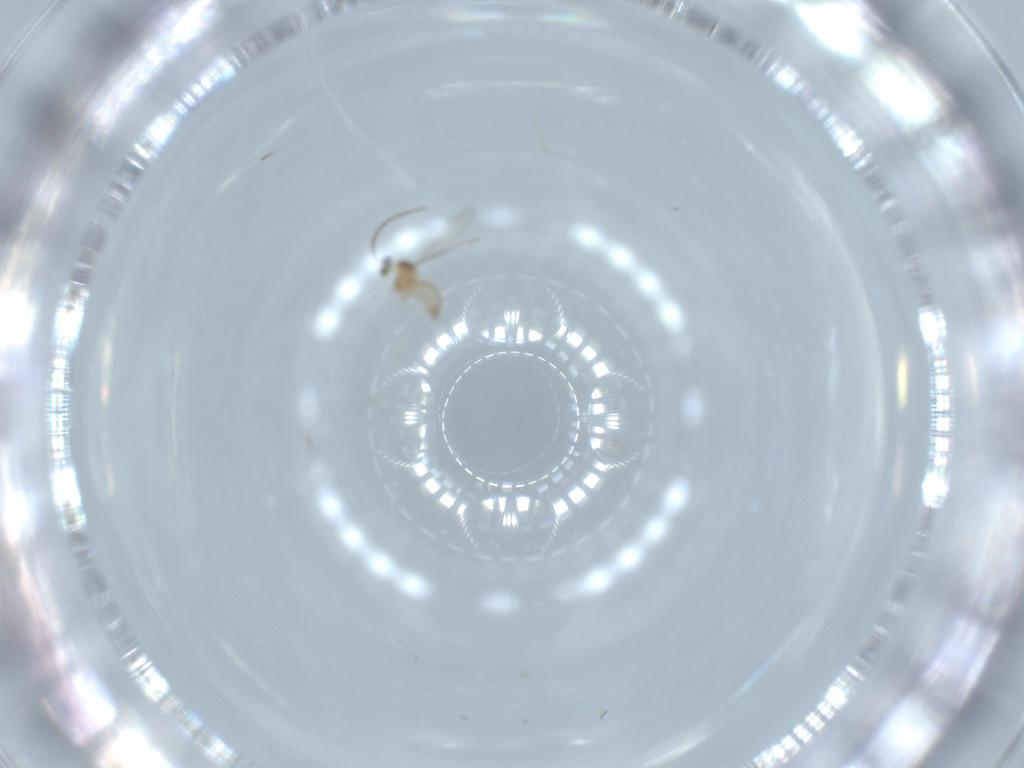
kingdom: Animalia
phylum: Arthropoda
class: Insecta
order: Diptera
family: Cecidomyiidae
